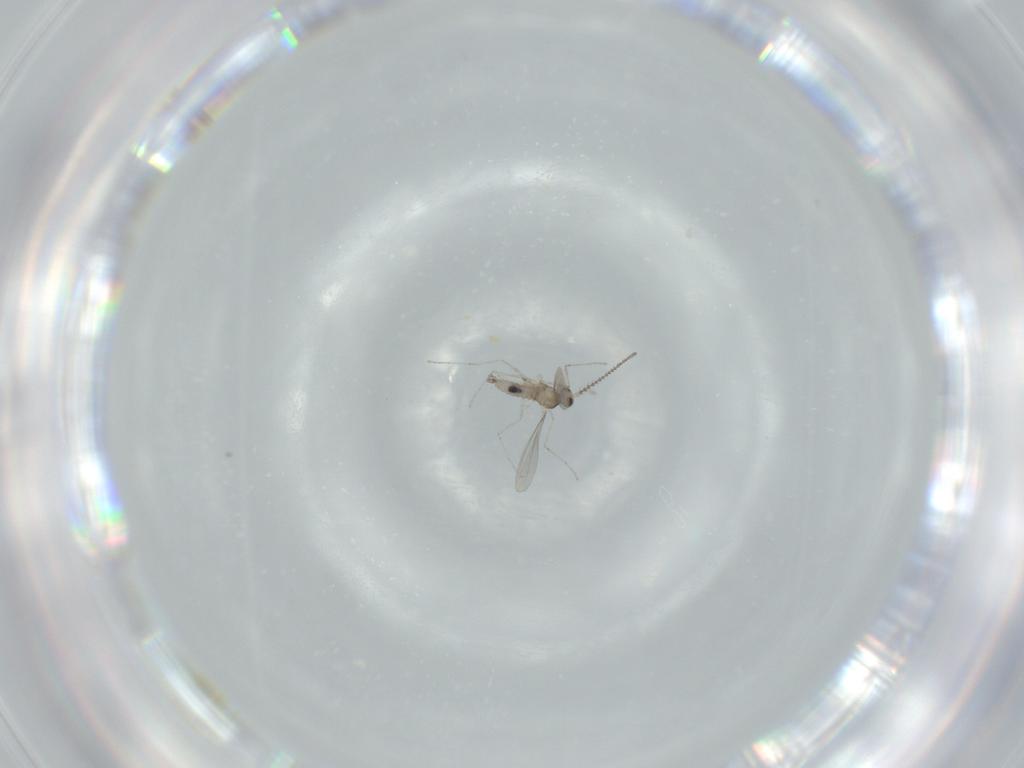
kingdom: Animalia
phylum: Arthropoda
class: Insecta
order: Diptera
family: Cecidomyiidae
